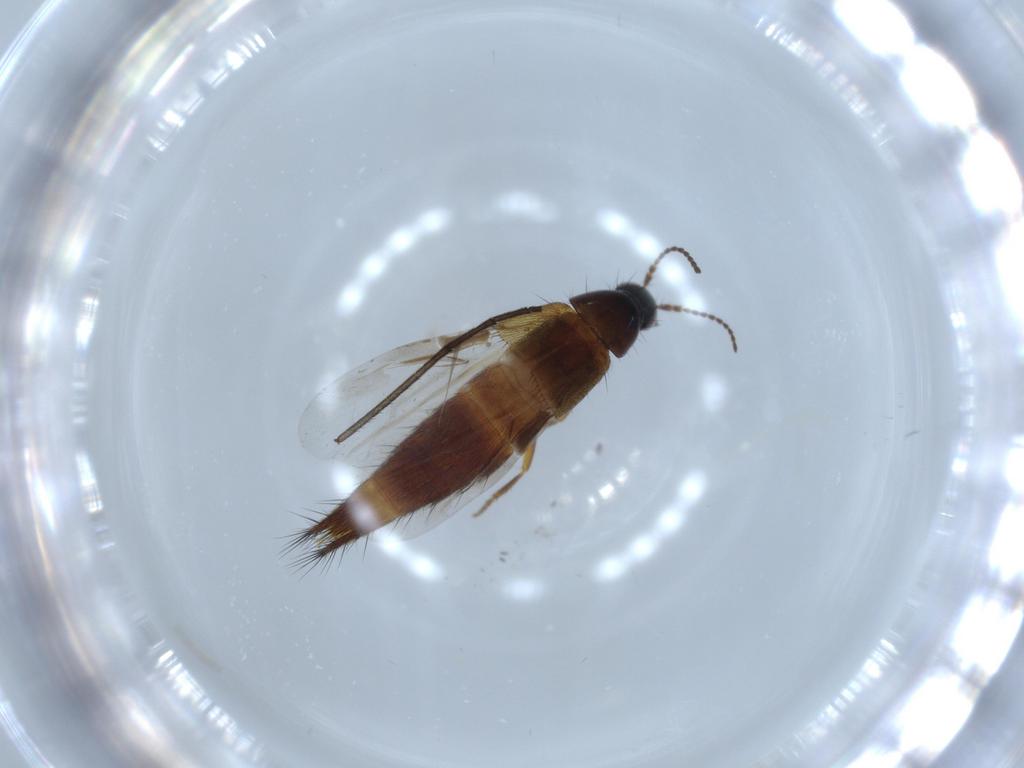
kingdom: Animalia
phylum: Arthropoda
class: Insecta
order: Coleoptera
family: Staphylinidae
